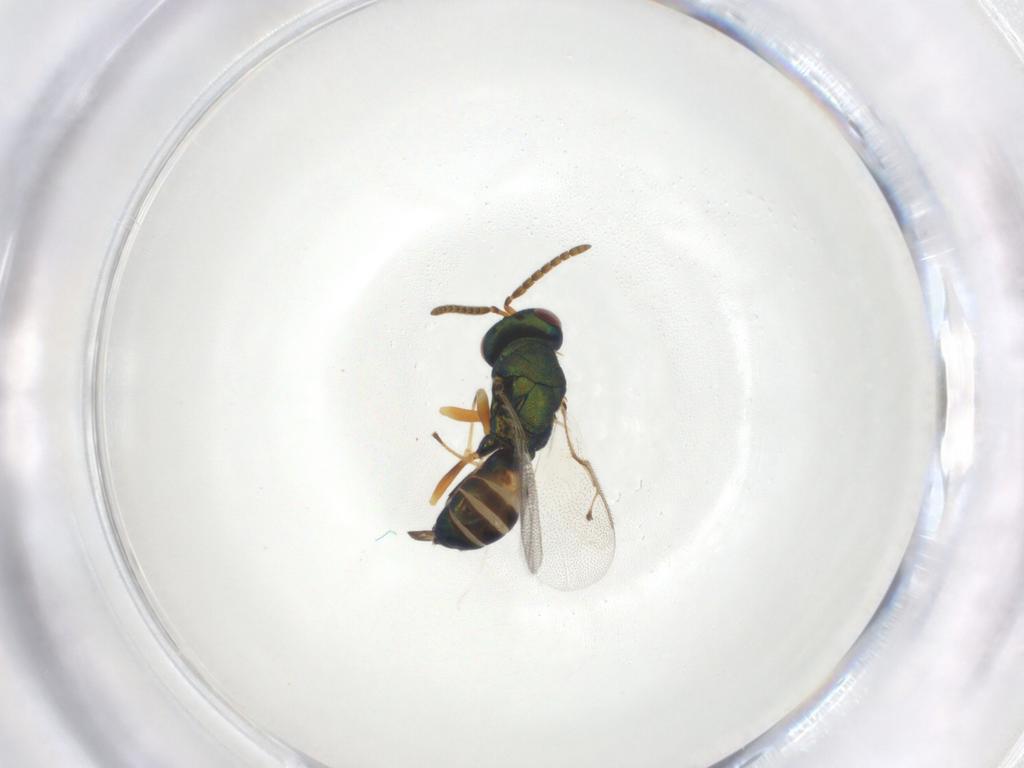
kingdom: Animalia
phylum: Arthropoda
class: Insecta
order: Hymenoptera
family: Pteromalidae
